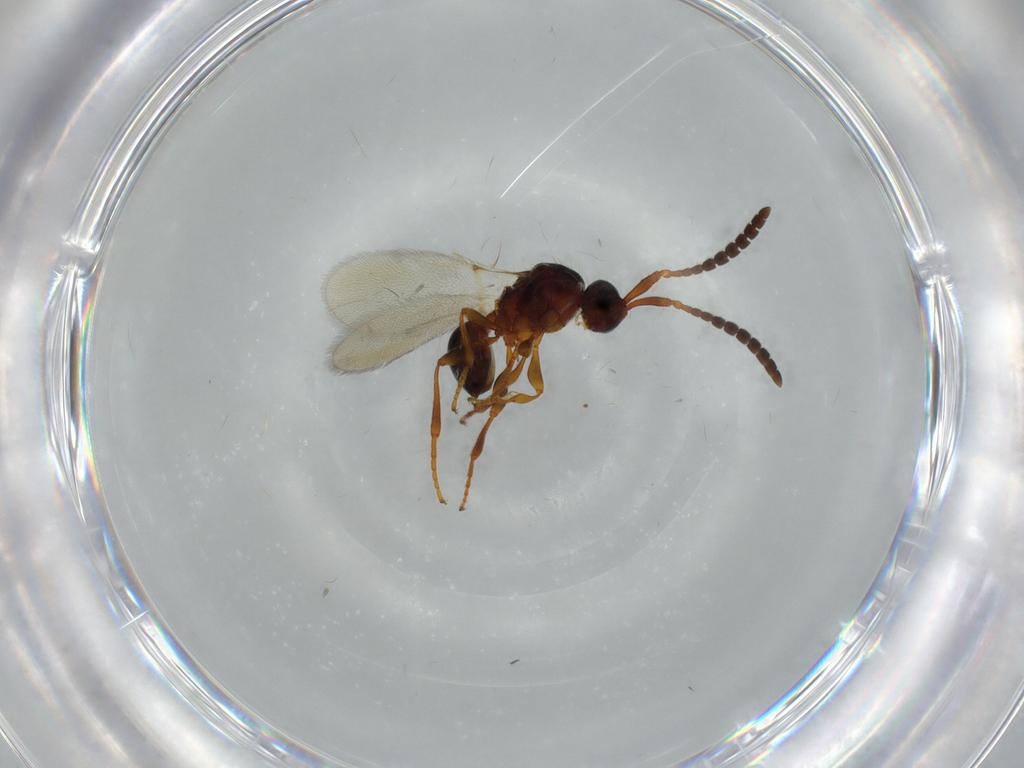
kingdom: Animalia
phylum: Arthropoda
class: Insecta
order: Hymenoptera
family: Diapriidae
